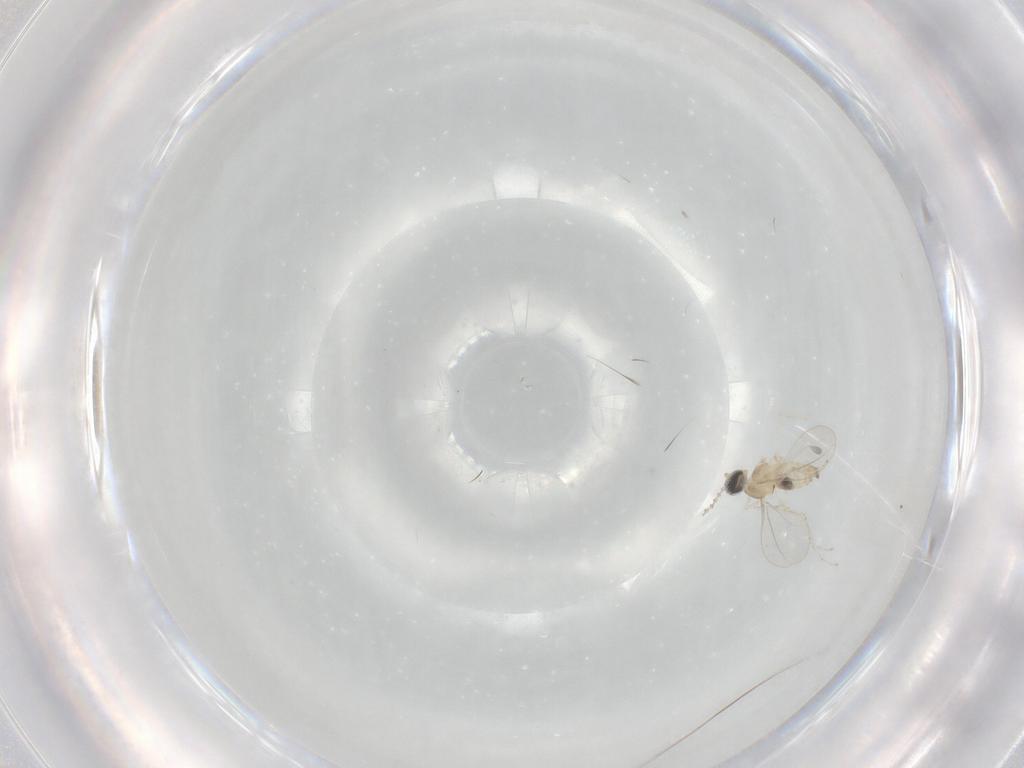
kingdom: Animalia
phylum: Arthropoda
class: Insecta
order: Diptera
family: Cecidomyiidae
